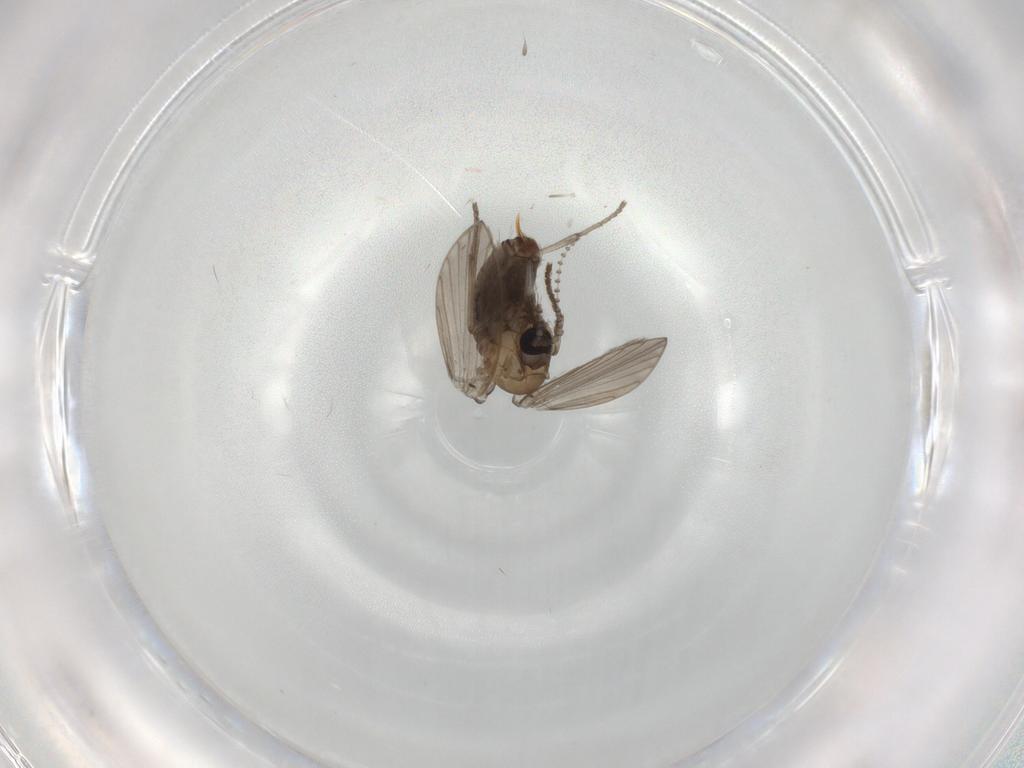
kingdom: Animalia
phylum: Arthropoda
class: Insecta
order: Diptera
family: Psychodidae
